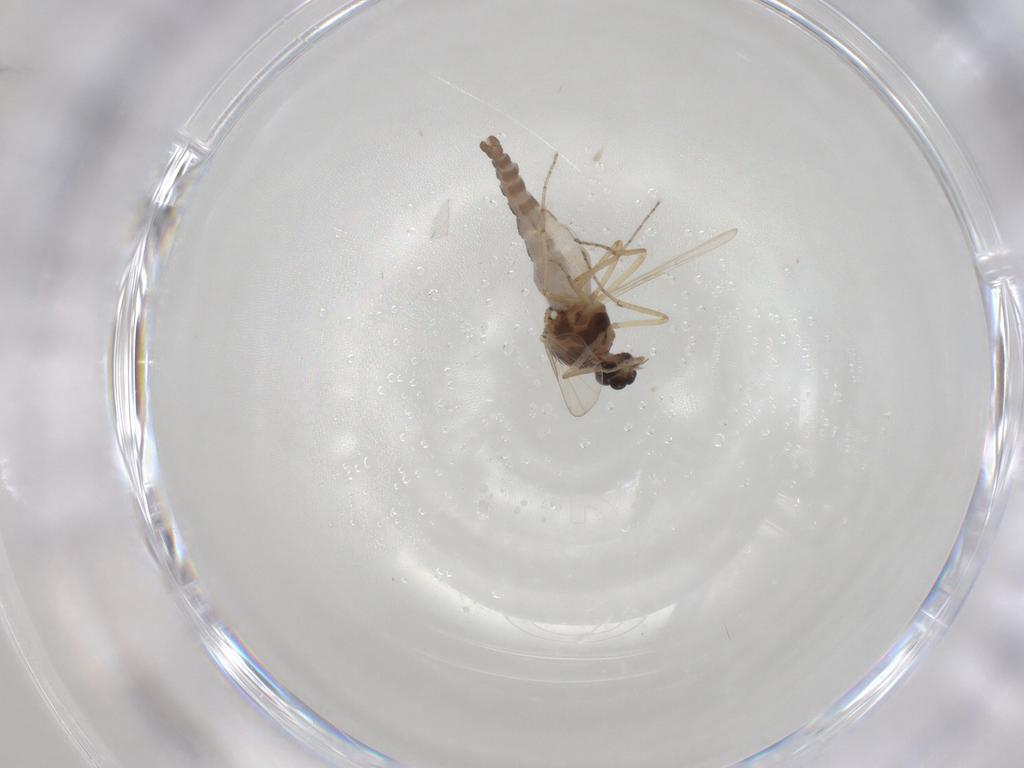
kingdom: Animalia
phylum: Arthropoda
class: Insecta
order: Diptera
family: Ceratopogonidae
